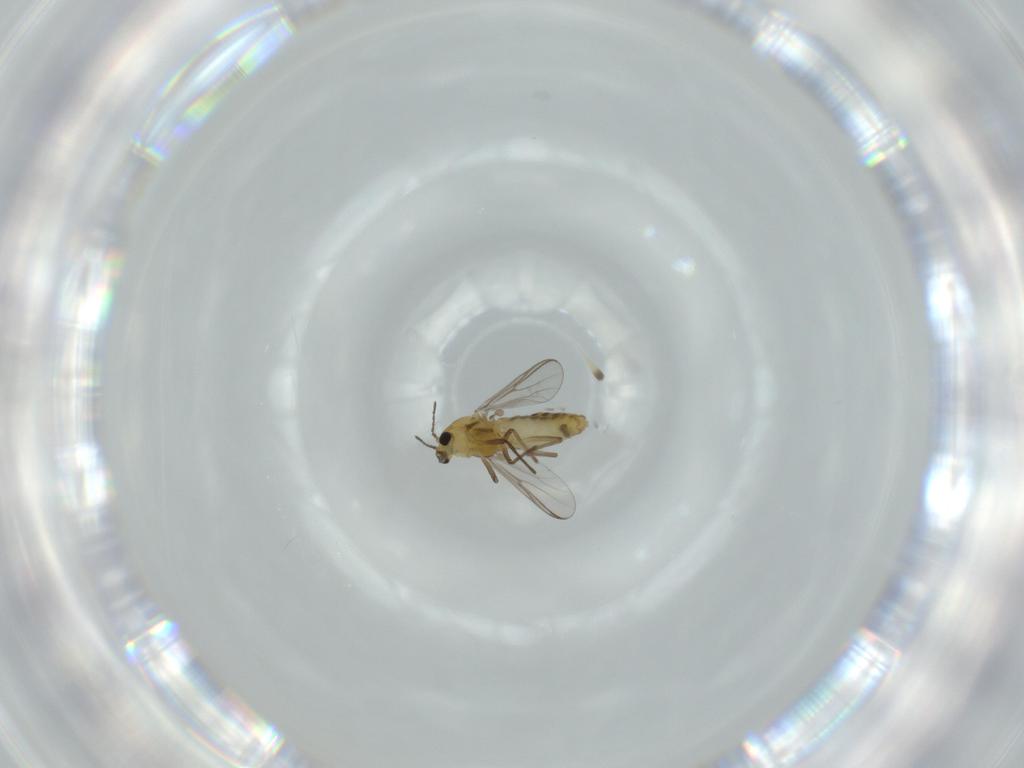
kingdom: Animalia
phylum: Arthropoda
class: Insecta
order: Diptera
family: Chironomidae
